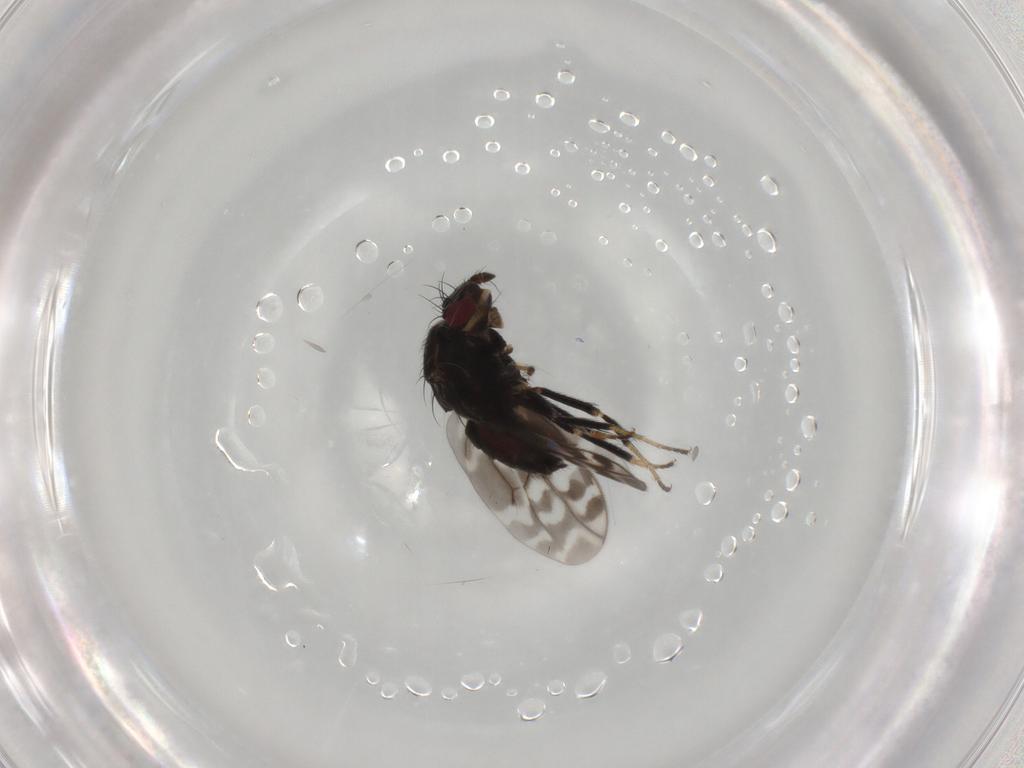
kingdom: Animalia
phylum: Arthropoda
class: Insecta
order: Diptera
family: Sphaeroceridae
